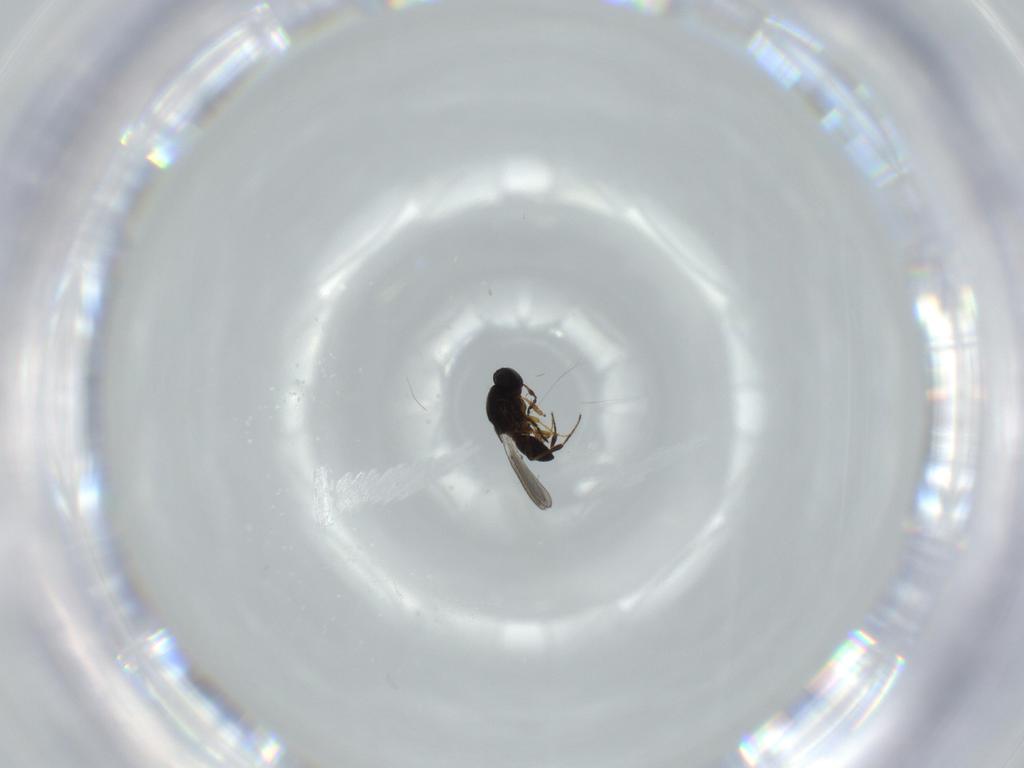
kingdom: Animalia
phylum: Arthropoda
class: Insecta
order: Hymenoptera
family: Platygastridae
